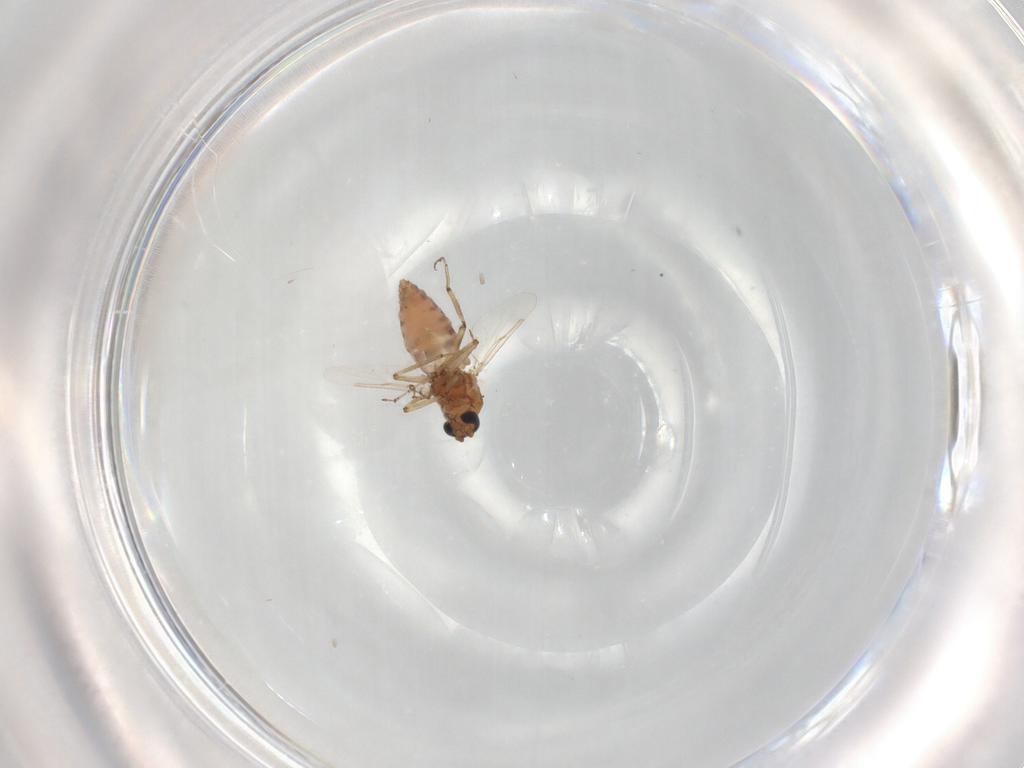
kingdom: Animalia
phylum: Arthropoda
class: Insecta
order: Diptera
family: Ceratopogonidae
